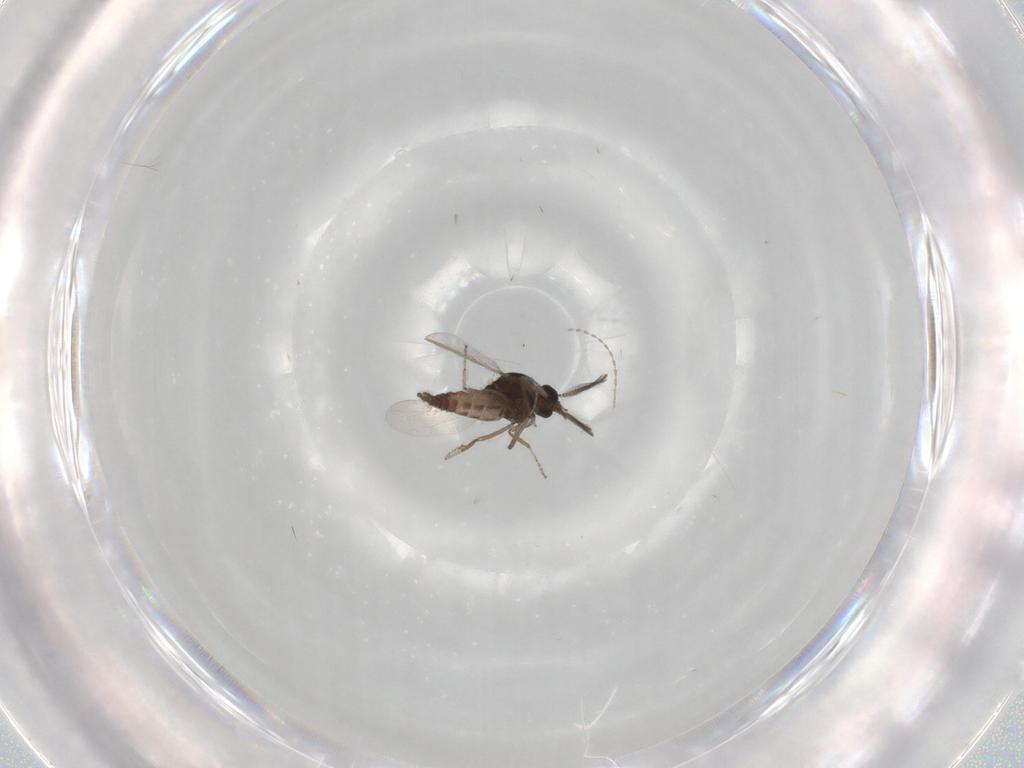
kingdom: Animalia
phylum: Arthropoda
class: Insecta
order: Diptera
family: Ceratopogonidae
